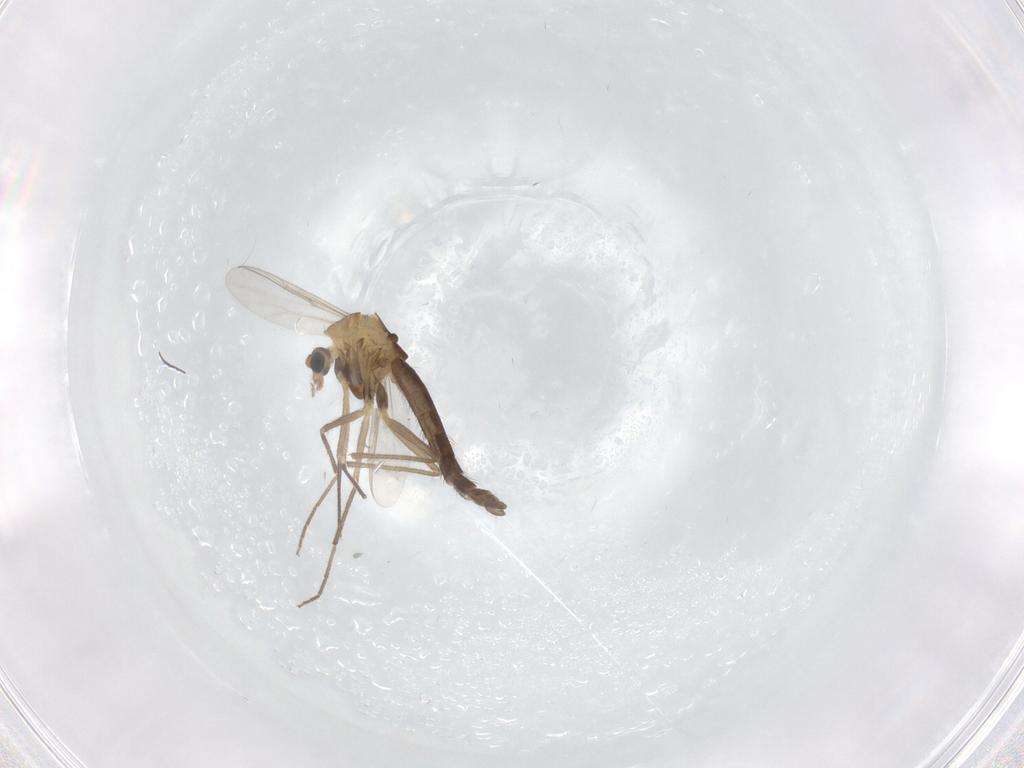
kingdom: Animalia
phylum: Arthropoda
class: Insecta
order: Diptera
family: Chironomidae
